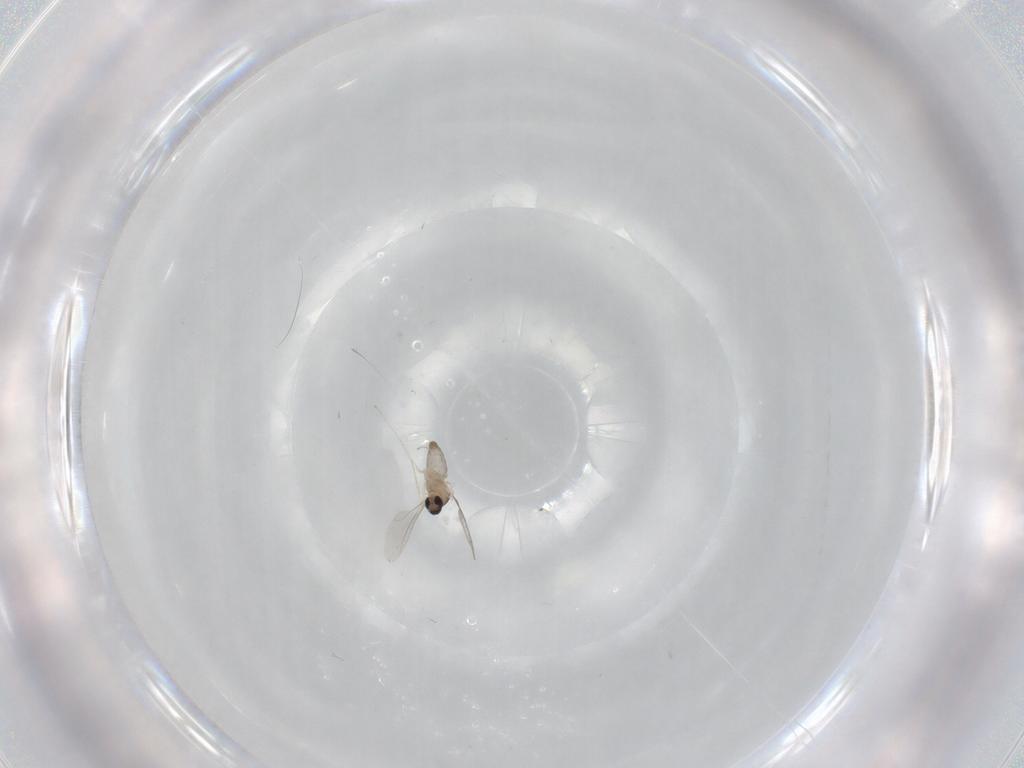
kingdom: Animalia
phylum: Arthropoda
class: Insecta
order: Diptera
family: Cecidomyiidae
